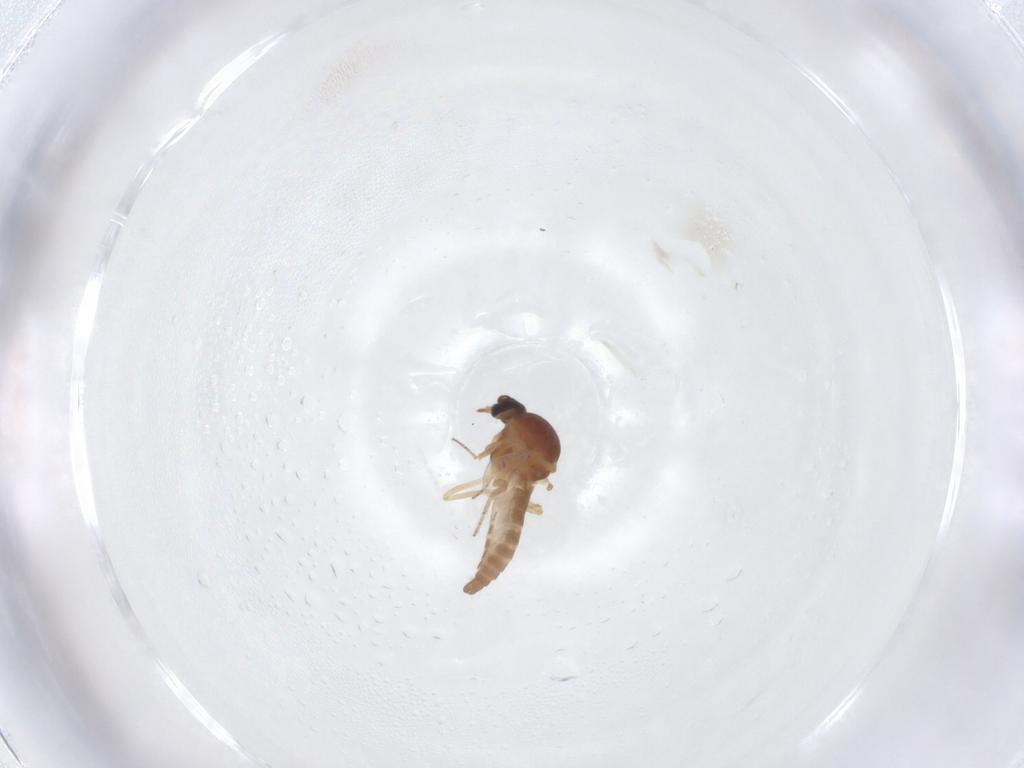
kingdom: Animalia
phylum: Arthropoda
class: Insecta
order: Diptera
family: Ceratopogonidae
